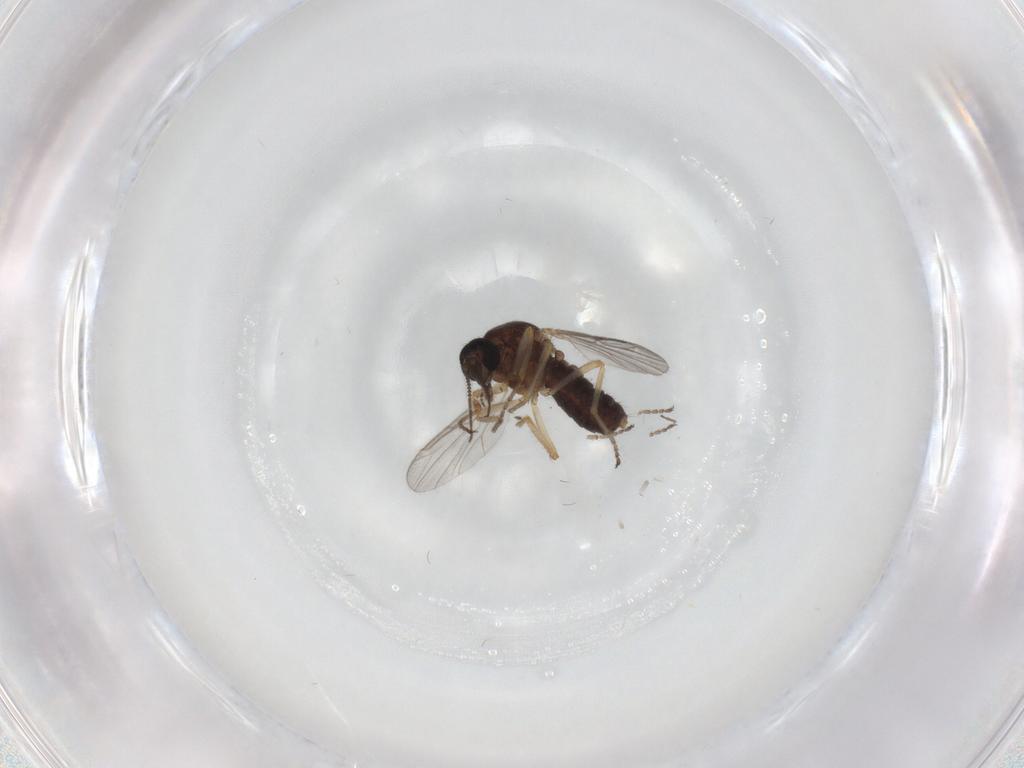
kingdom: Animalia
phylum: Arthropoda
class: Insecta
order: Diptera
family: Ceratopogonidae
